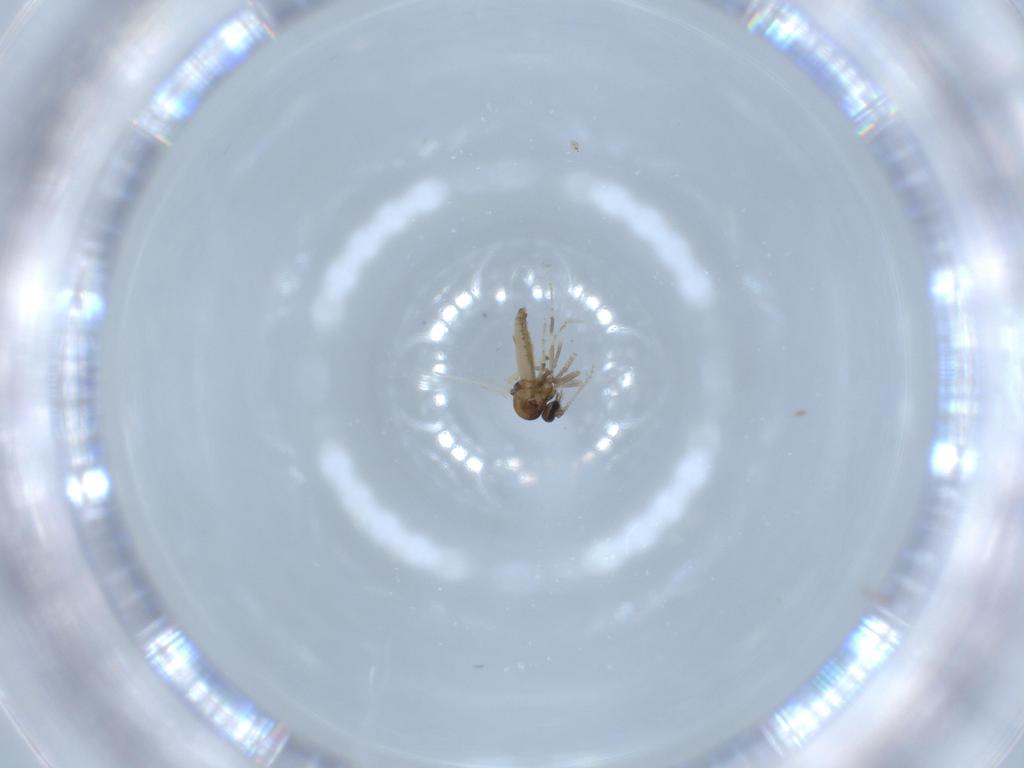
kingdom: Animalia
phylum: Arthropoda
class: Insecta
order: Diptera
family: Ceratopogonidae
